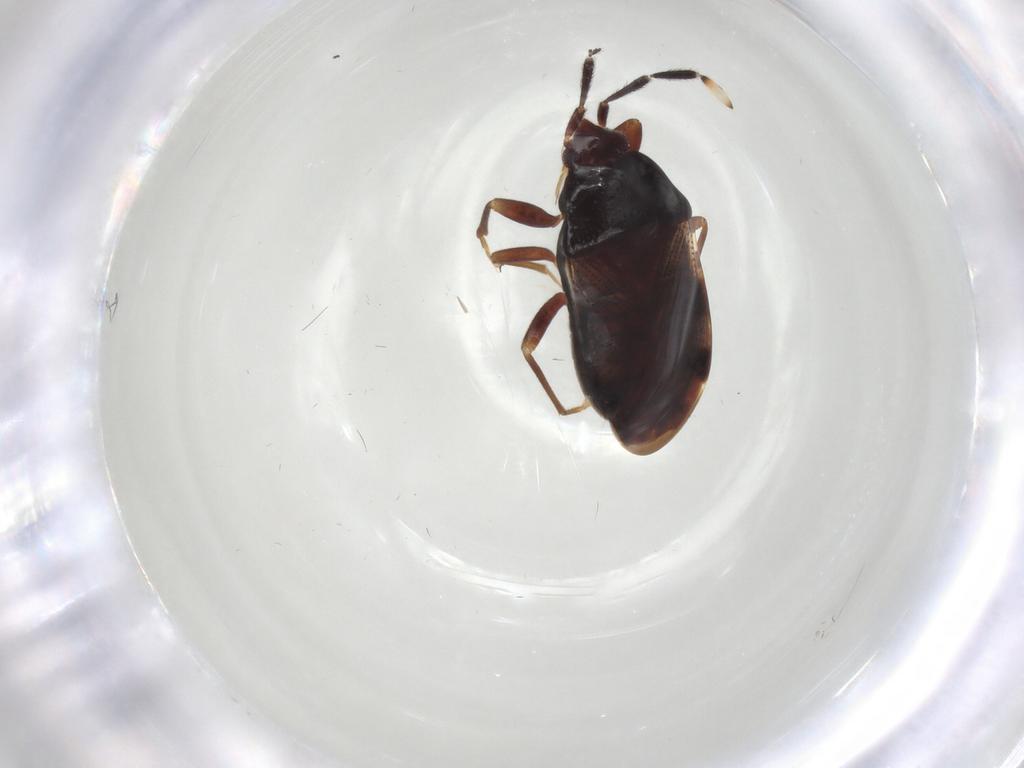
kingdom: Animalia
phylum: Arthropoda
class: Insecta
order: Hemiptera
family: Rhyparochromidae
